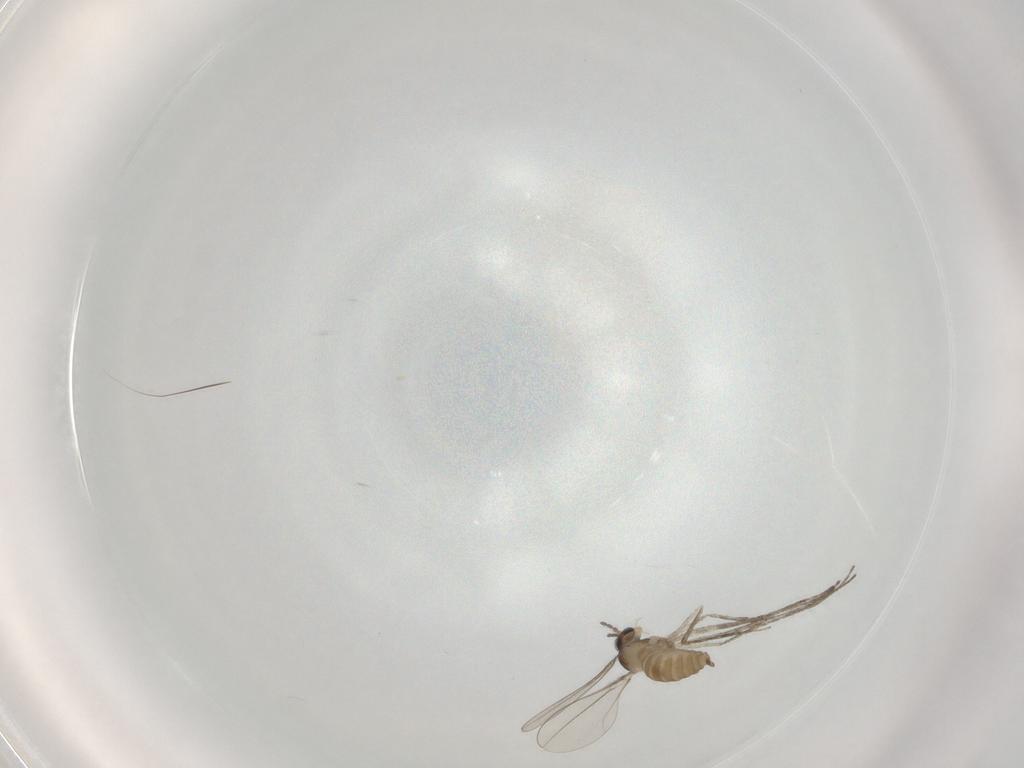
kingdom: Animalia
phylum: Arthropoda
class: Insecta
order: Diptera
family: Cecidomyiidae
